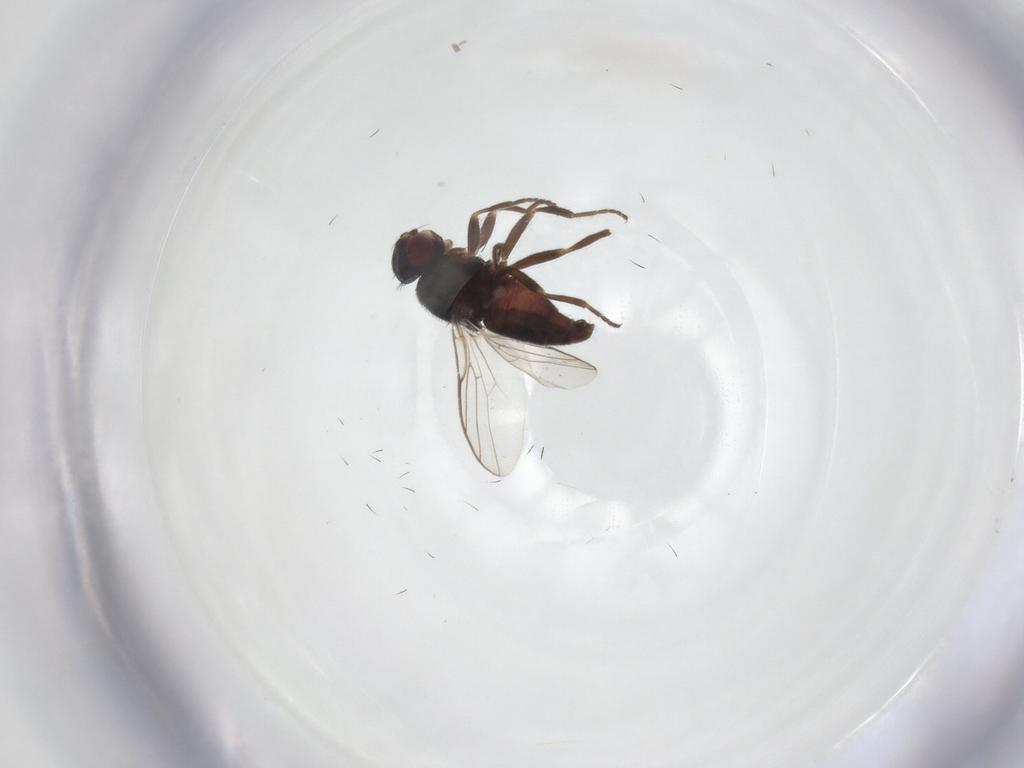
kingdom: Animalia
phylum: Arthropoda
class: Insecta
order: Diptera
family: Chloropidae
